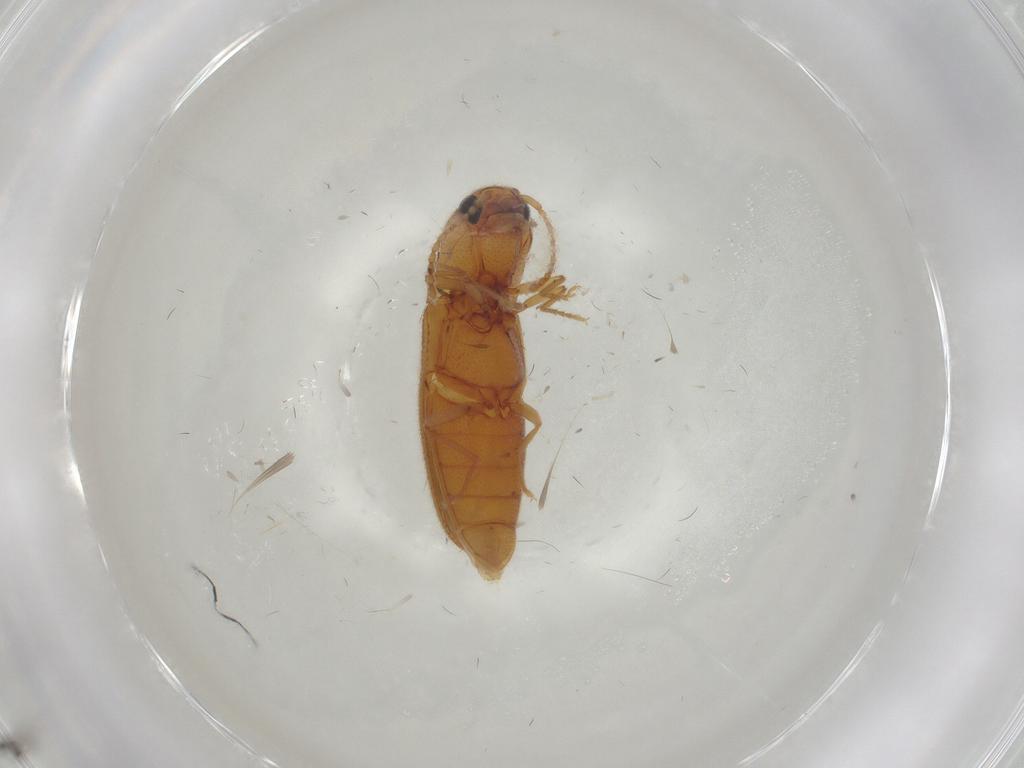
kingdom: Animalia
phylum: Arthropoda
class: Insecta
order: Coleoptera
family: Elateridae
